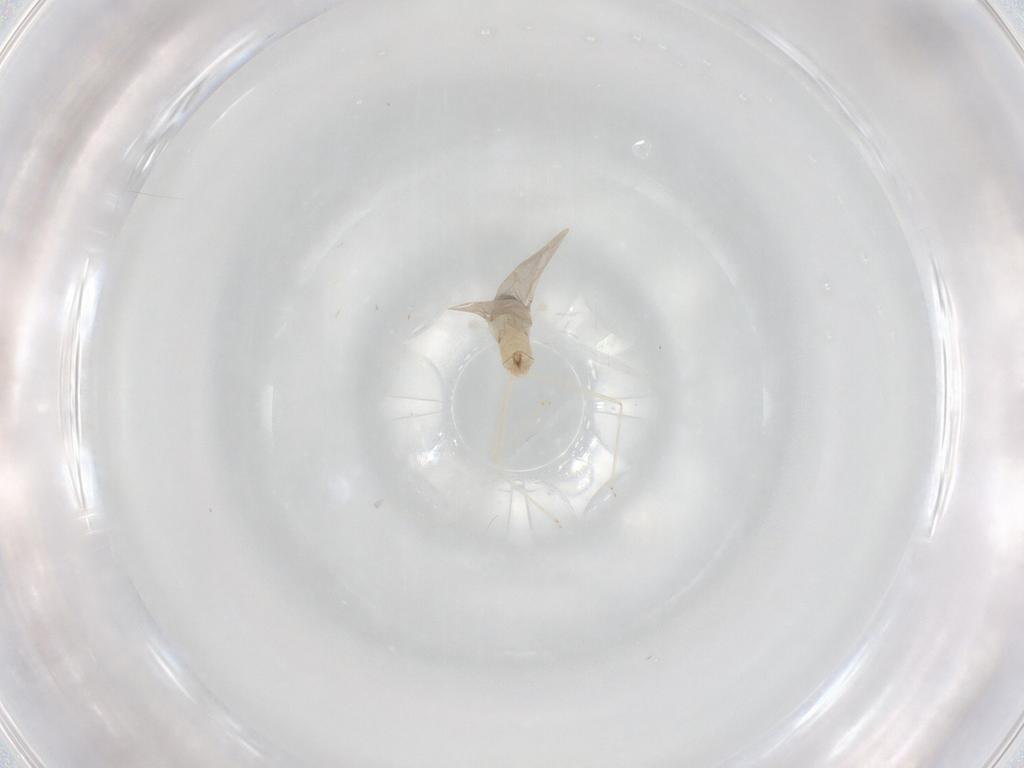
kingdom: Animalia
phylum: Arthropoda
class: Insecta
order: Diptera
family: Cecidomyiidae
